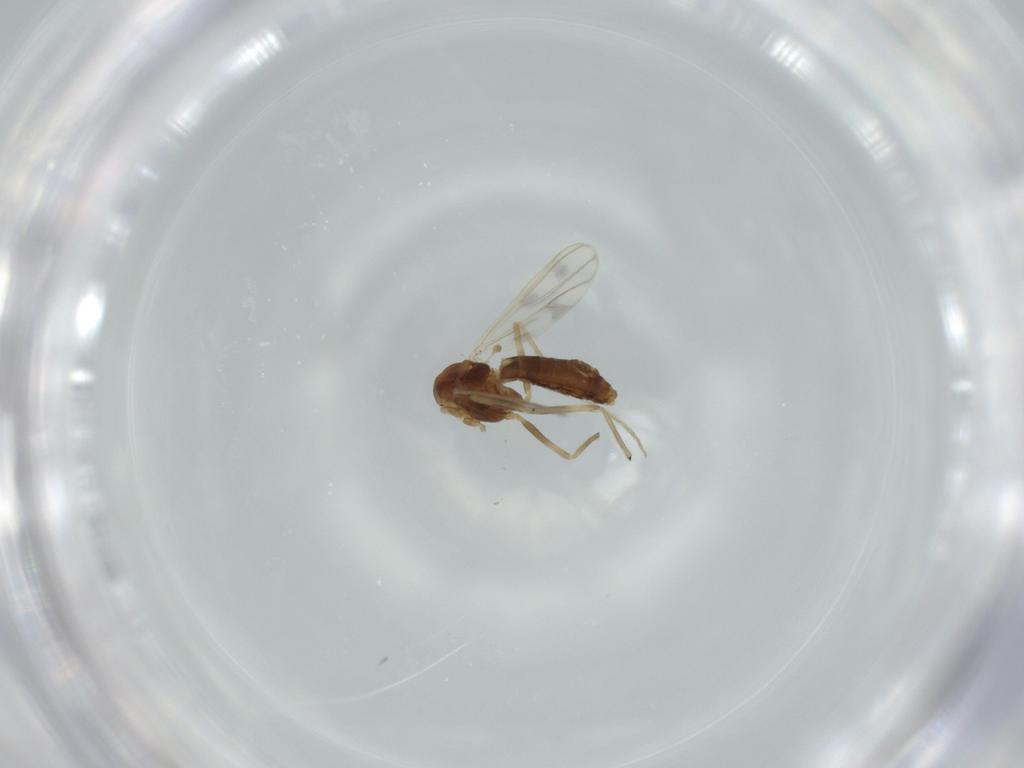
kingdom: Animalia
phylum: Arthropoda
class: Insecta
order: Diptera
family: Chironomidae
